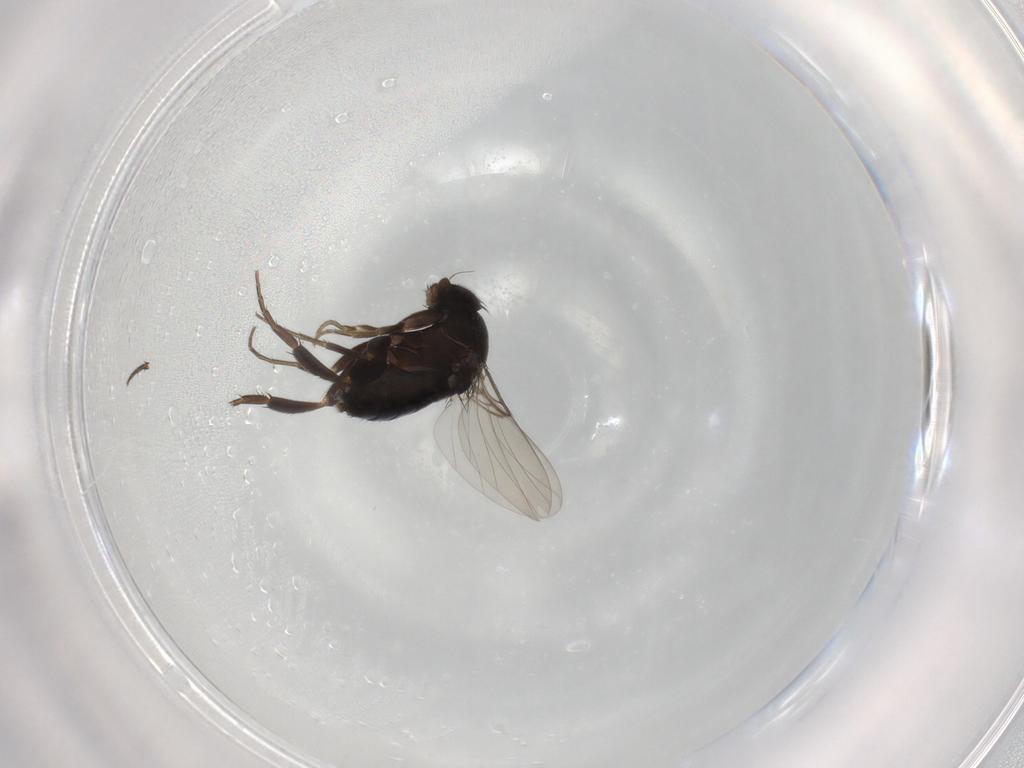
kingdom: Animalia
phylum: Arthropoda
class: Insecta
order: Diptera
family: Phoridae
